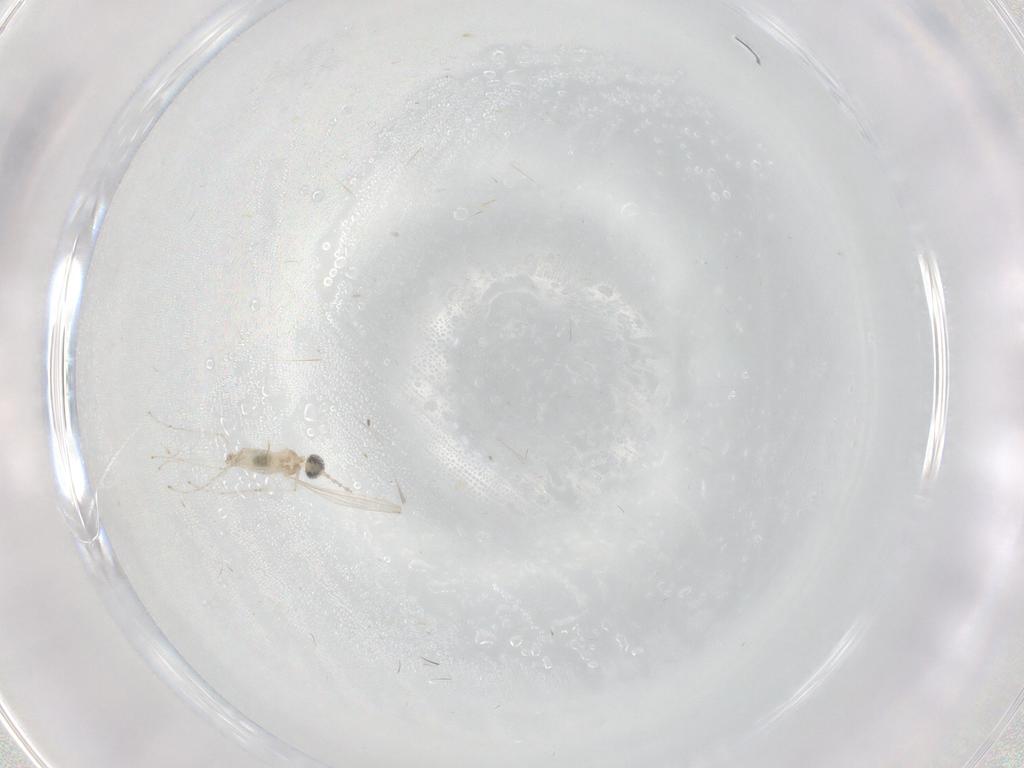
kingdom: Animalia
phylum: Arthropoda
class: Insecta
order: Diptera
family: Cecidomyiidae
